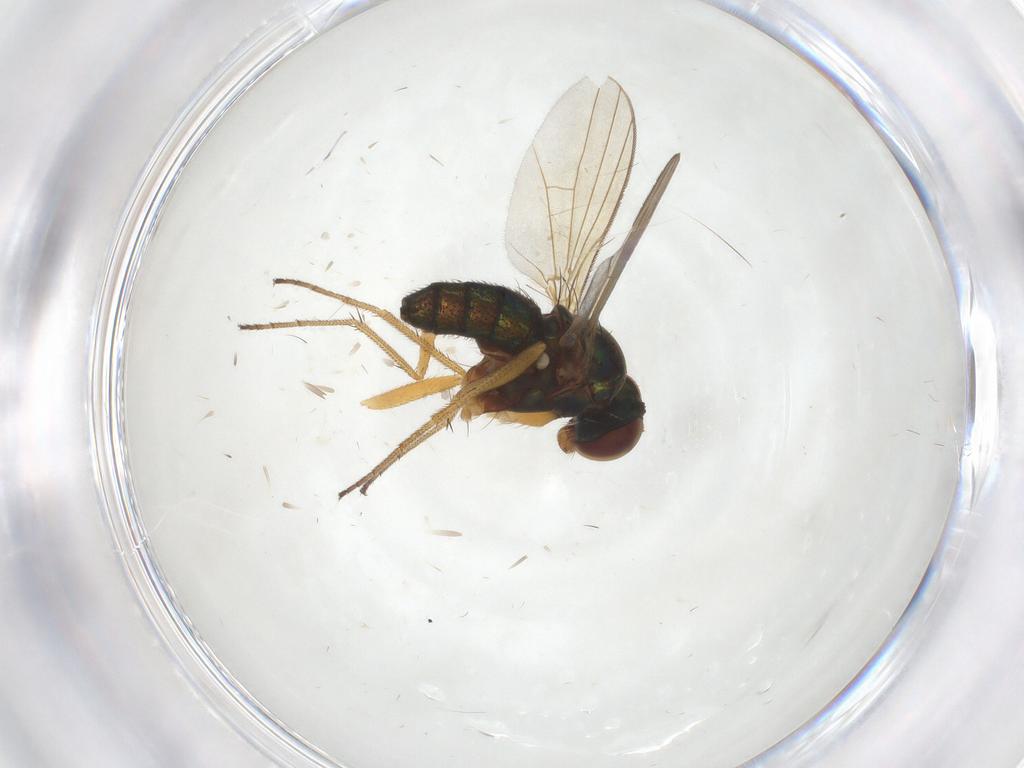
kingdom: Animalia
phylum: Arthropoda
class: Insecta
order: Diptera
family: Dolichopodidae
